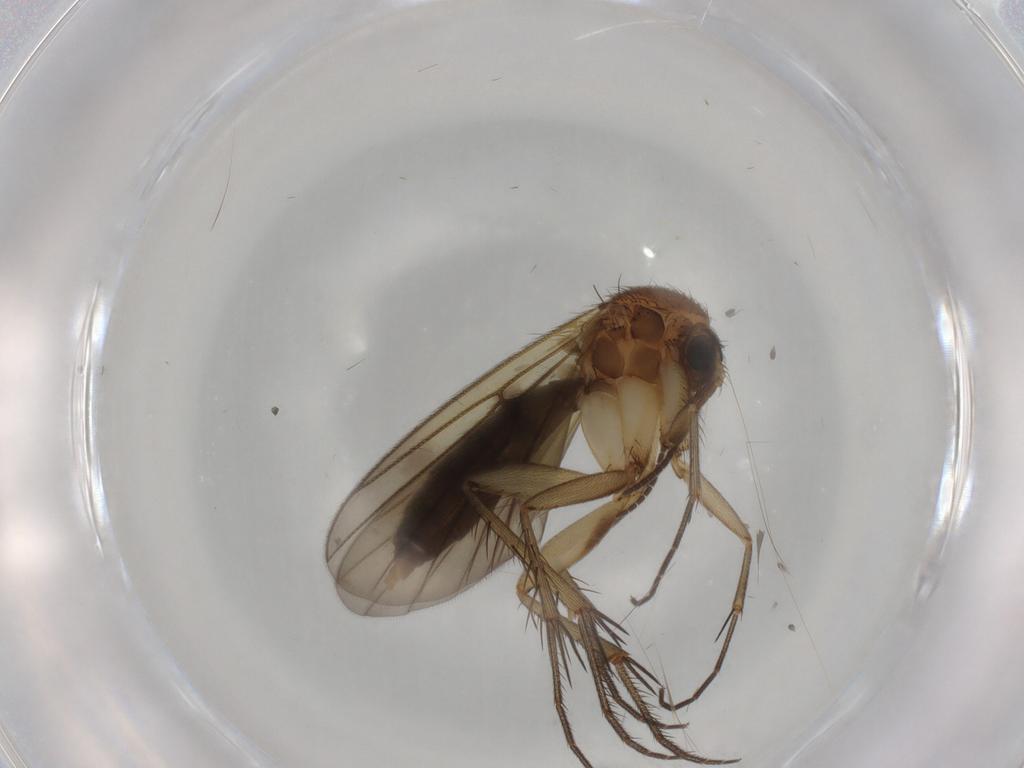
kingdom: Animalia
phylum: Arthropoda
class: Insecta
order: Diptera
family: Mycetophilidae
